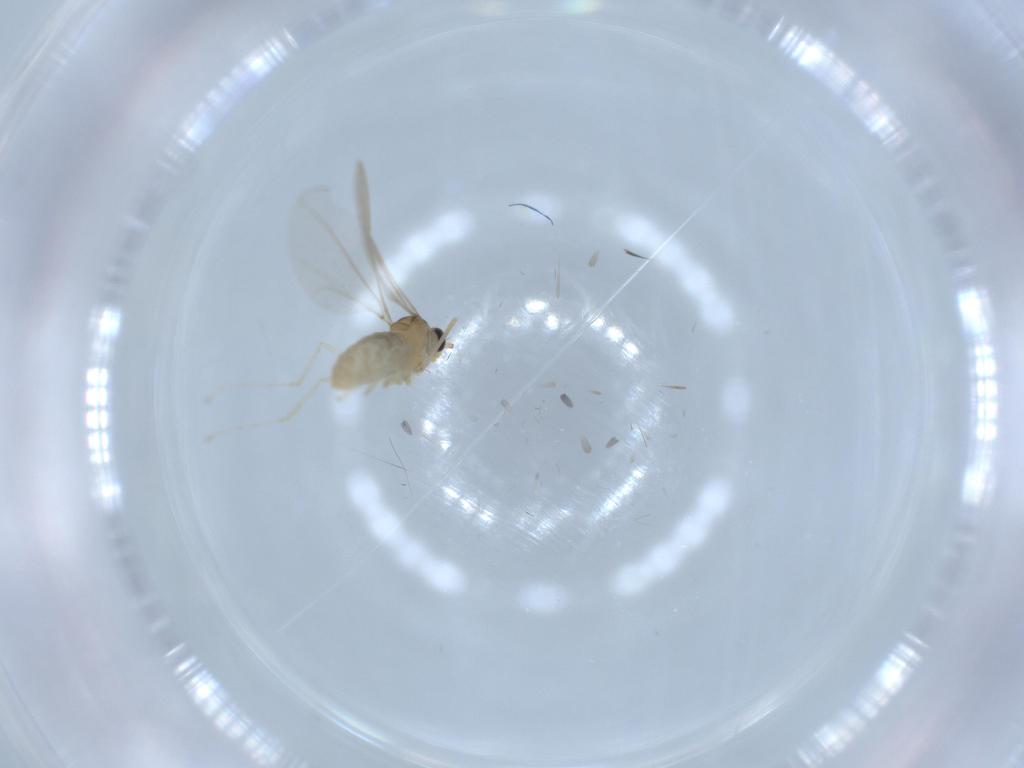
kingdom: Animalia
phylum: Arthropoda
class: Insecta
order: Diptera
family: Cecidomyiidae
